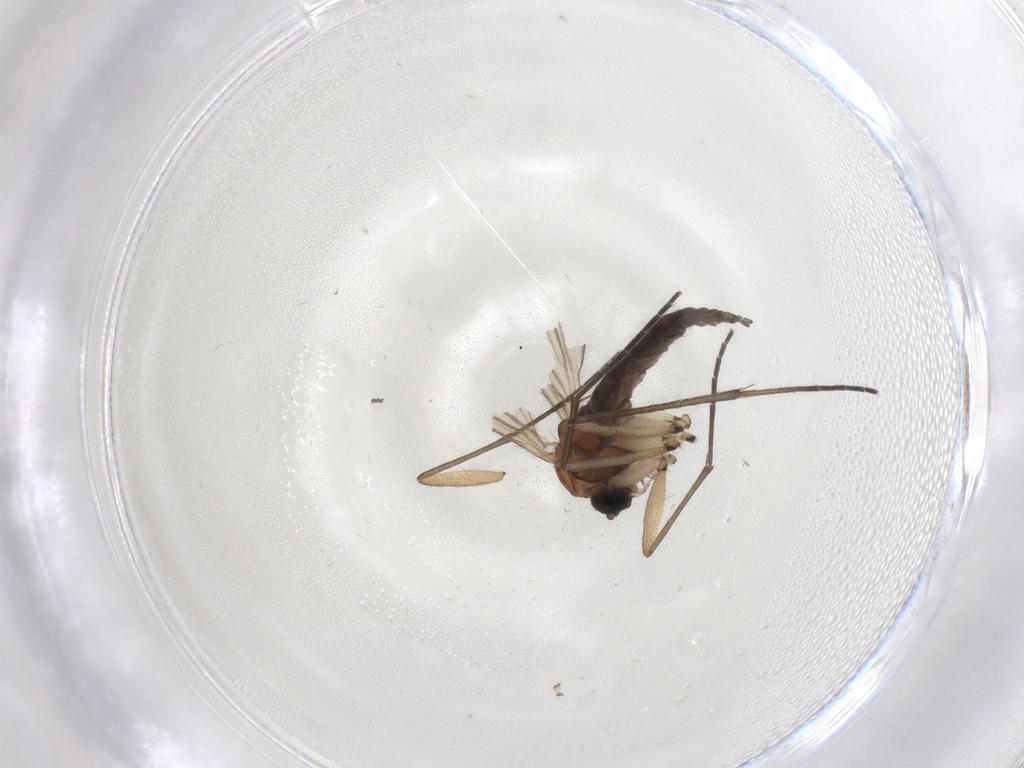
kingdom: Animalia
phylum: Arthropoda
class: Insecta
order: Diptera
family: Sciaridae
